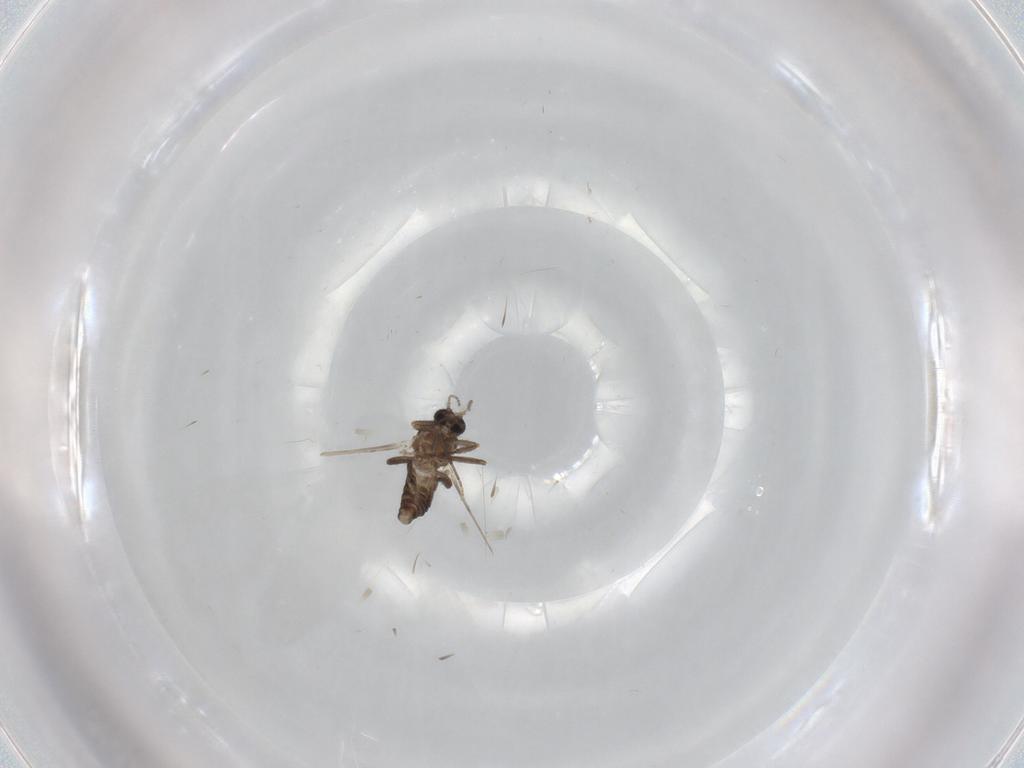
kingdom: Animalia
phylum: Arthropoda
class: Insecta
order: Diptera
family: Ceratopogonidae
